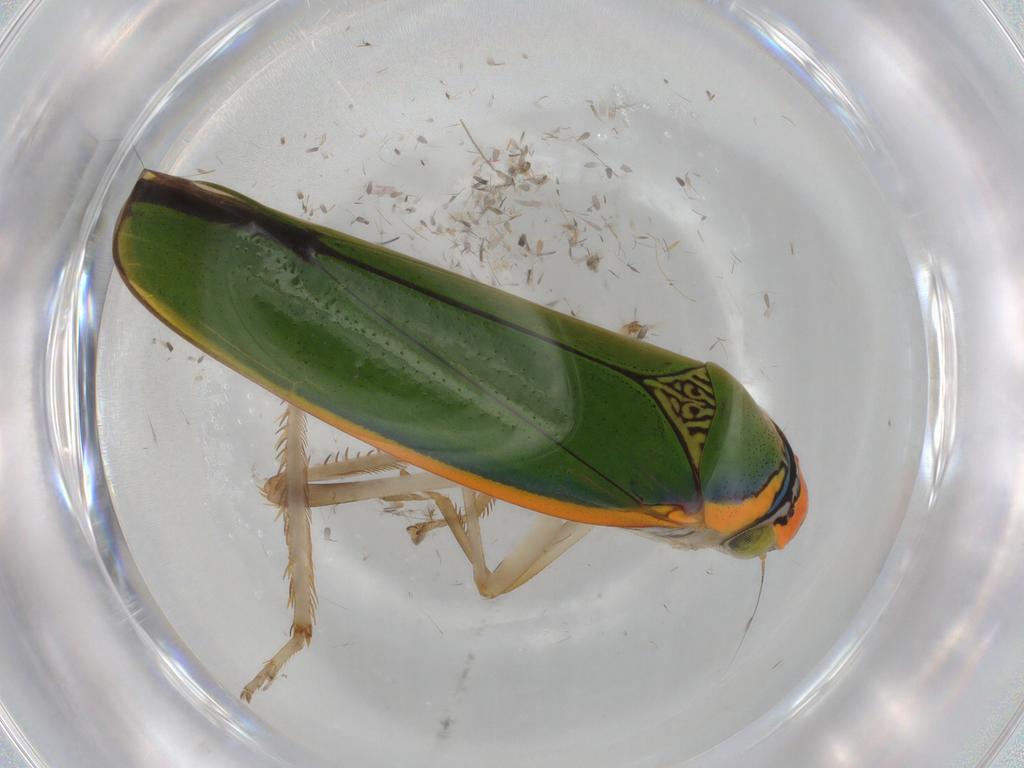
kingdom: Animalia
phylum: Arthropoda
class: Insecta
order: Hemiptera
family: Cicadellidae
